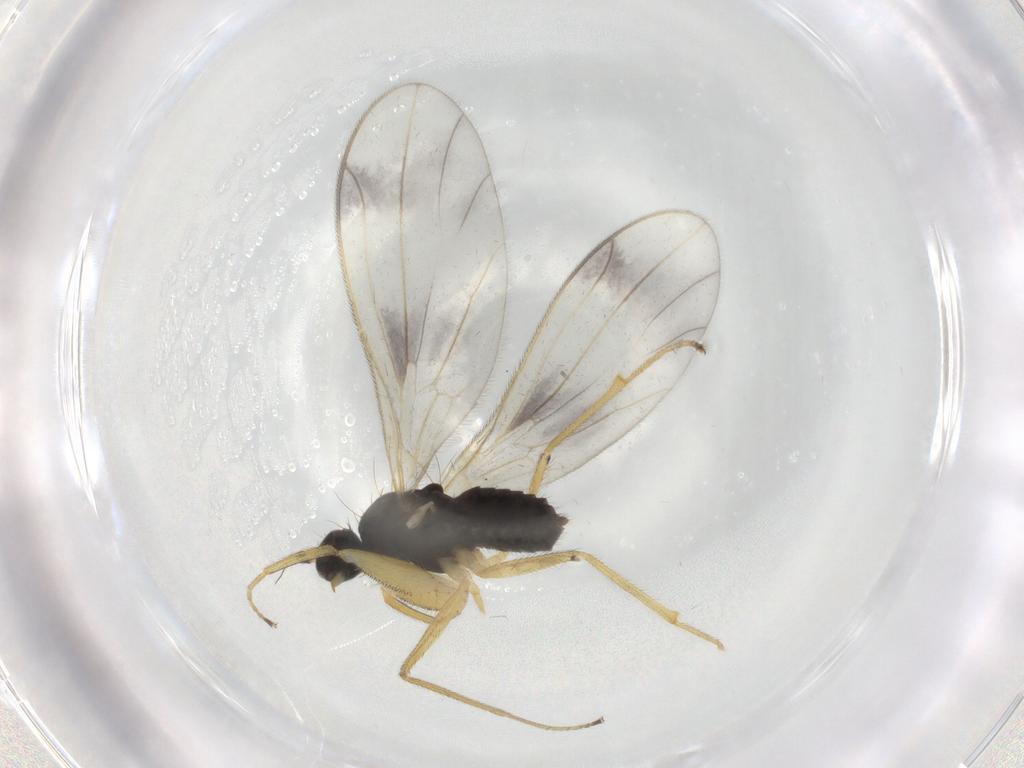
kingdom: Animalia
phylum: Arthropoda
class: Insecta
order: Diptera
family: Empididae
